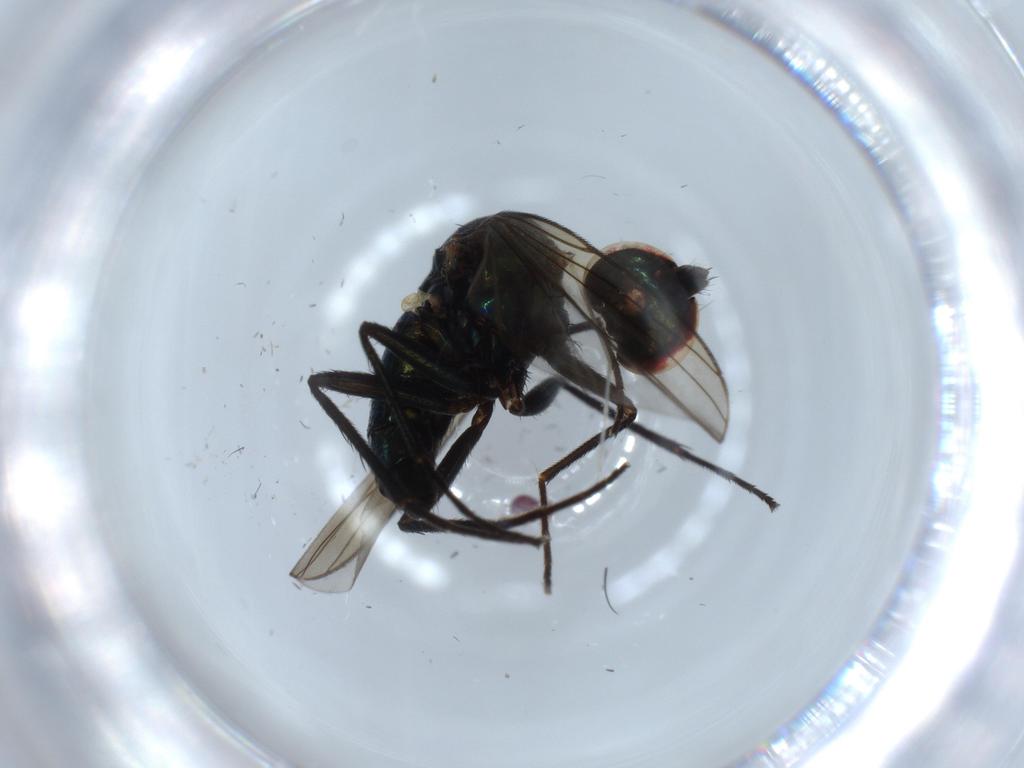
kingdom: Animalia
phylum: Arthropoda
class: Insecta
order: Diptera
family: Dolichopodidae
